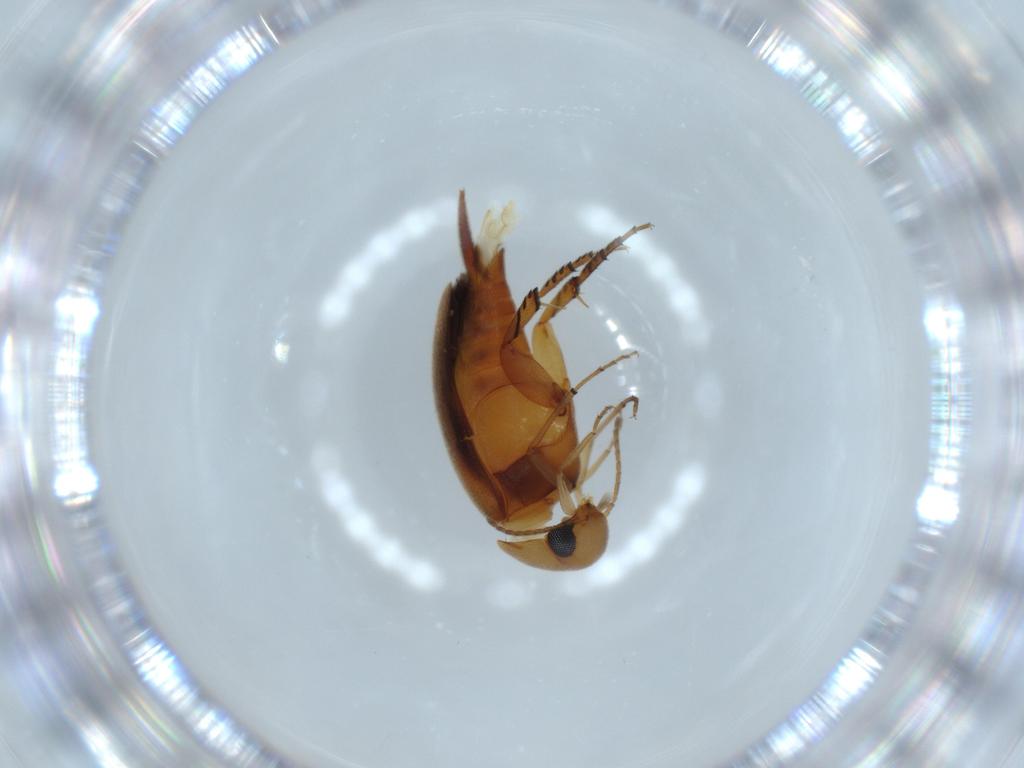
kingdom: Animalia
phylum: Arthropoda
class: Insecta
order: Coleoptera
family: Mordellidae
